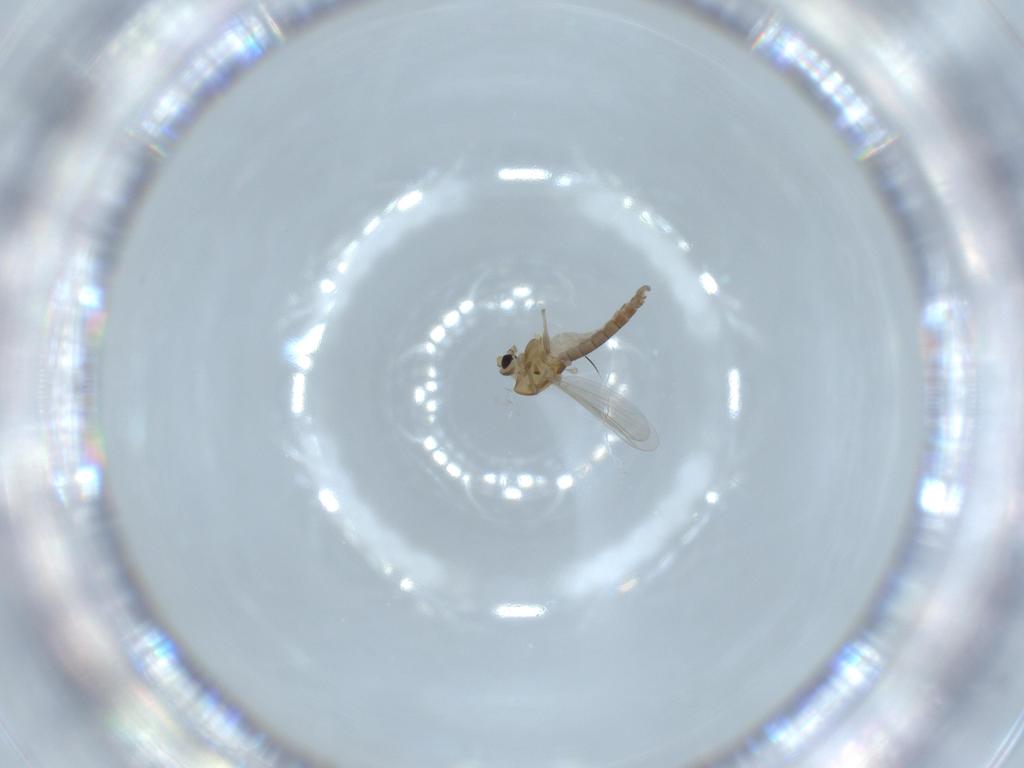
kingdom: Animalia
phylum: Arthropoda
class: Insecta
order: Diptera
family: Chironomidae
